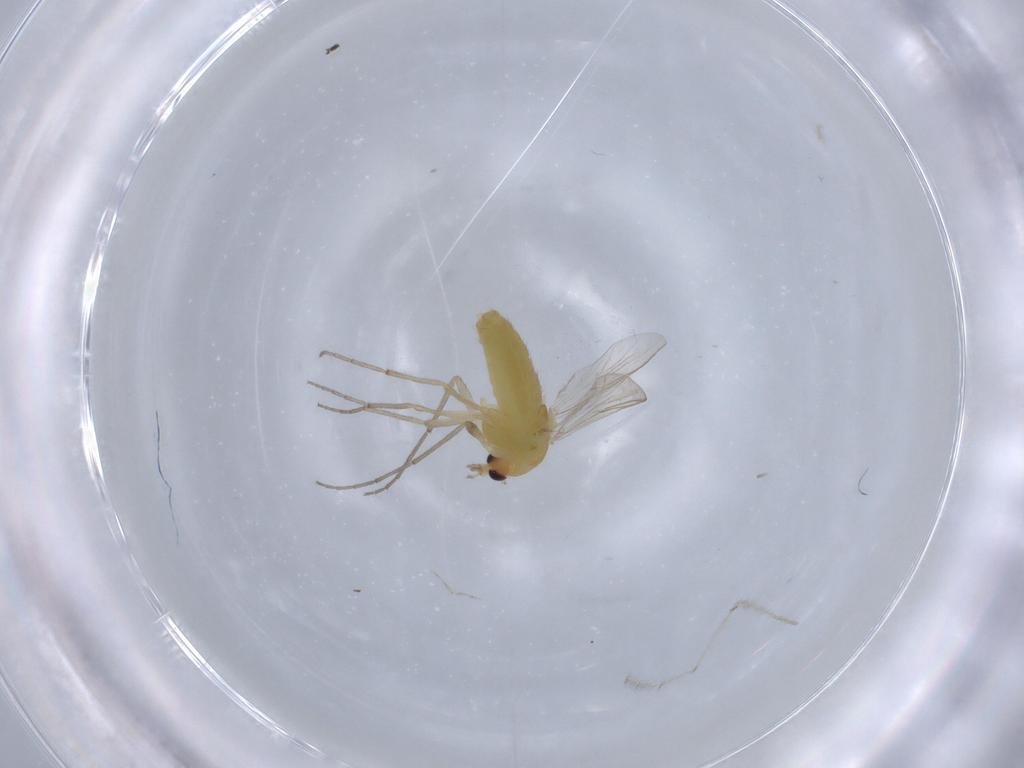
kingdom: Animalia
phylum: Arthropoda
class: Insecta
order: Diptera
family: Chironomidae
